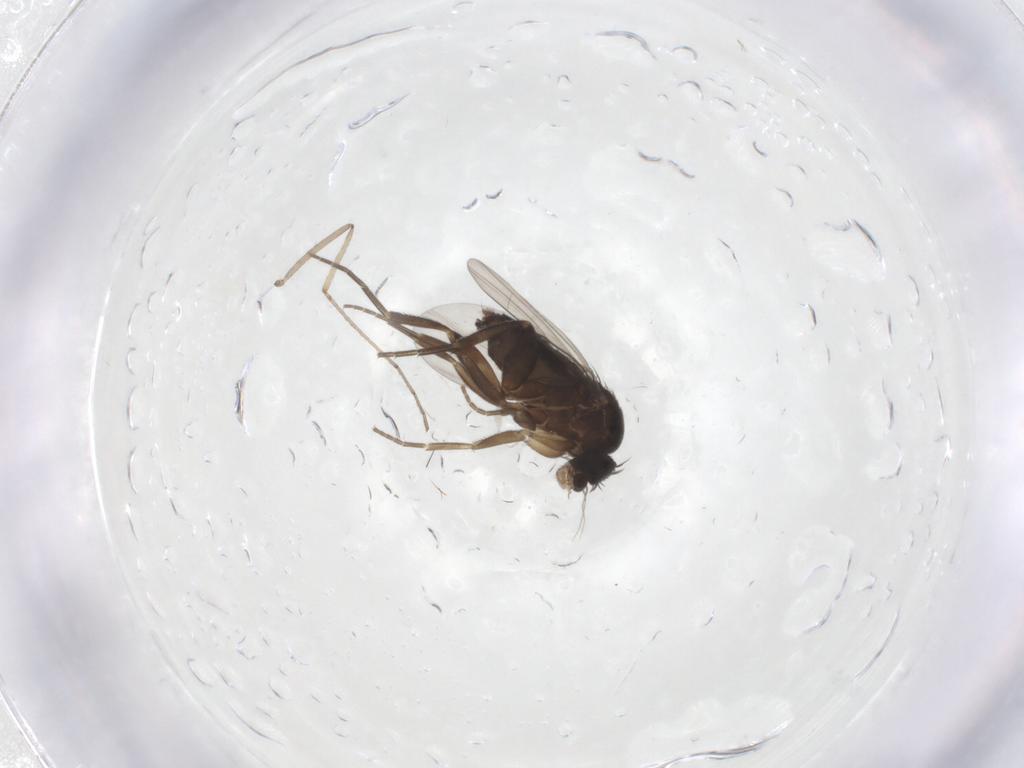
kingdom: Animalia
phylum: Arthropoda
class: Insecta
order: Diptera
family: Phoridae
